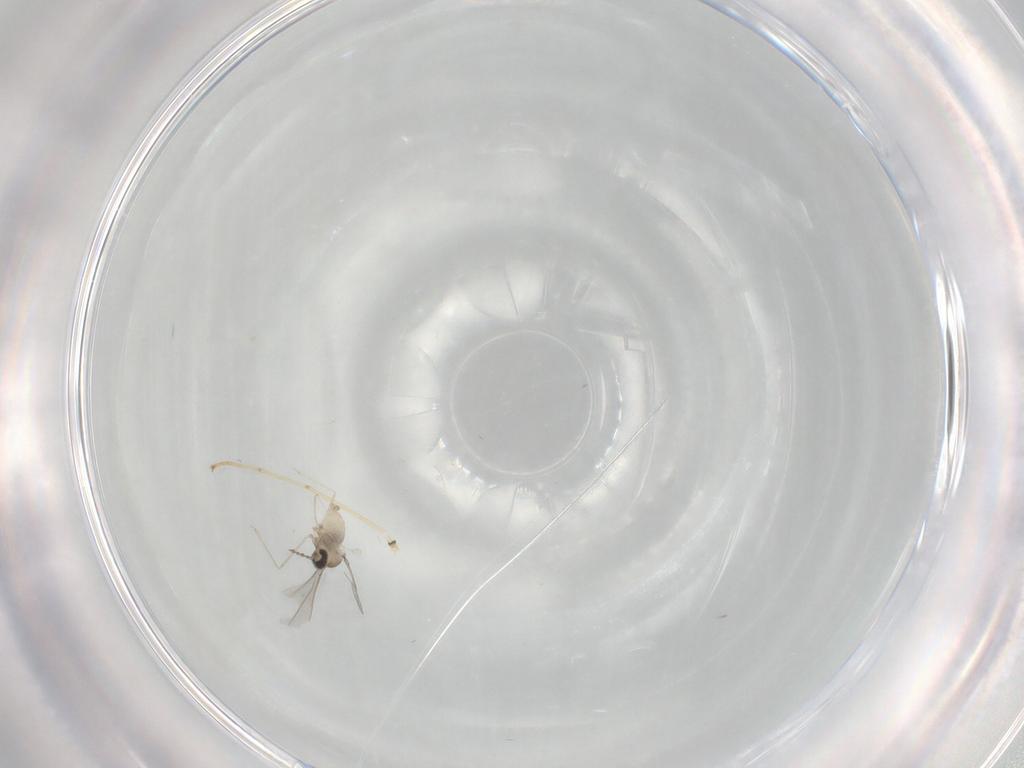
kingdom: Animalia
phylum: Arthropoda
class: Insecta
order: Diptera
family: Chironomidae
